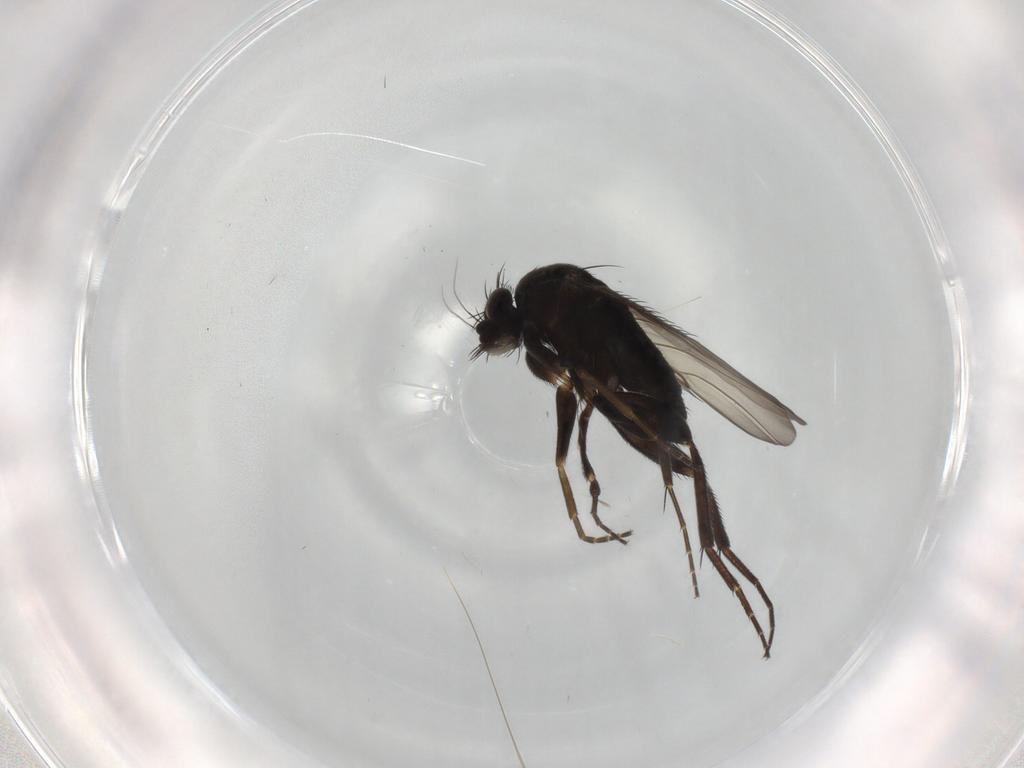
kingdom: Animalia
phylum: Arthropoda
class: Insecta
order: Diptera
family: Phoridae
